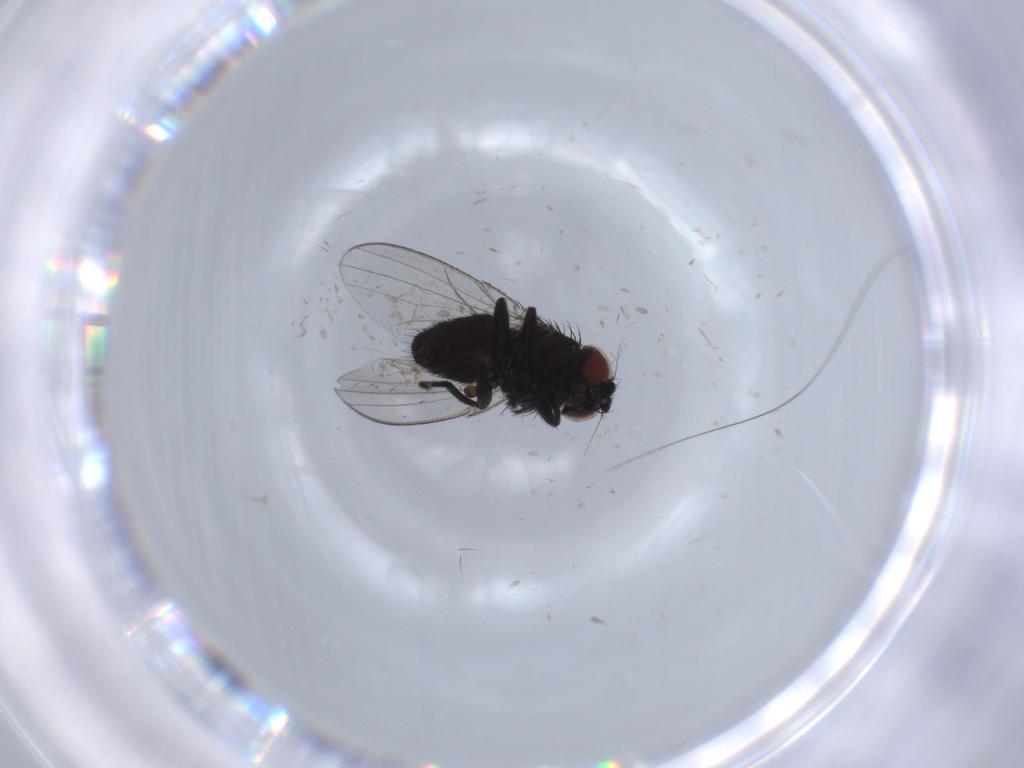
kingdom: Animalia
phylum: Arthropoda
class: Insecta
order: Diptera
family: Milichiidae
